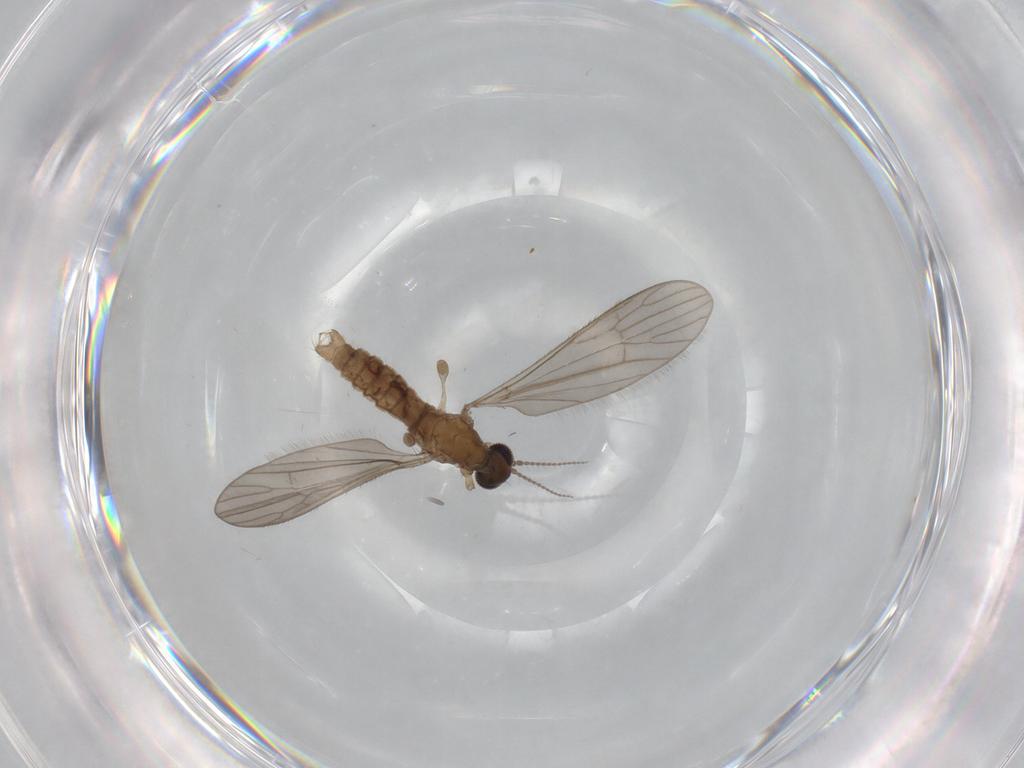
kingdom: Animalia
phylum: Arthropoda
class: Insecta
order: Diptera
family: Limoniidae
